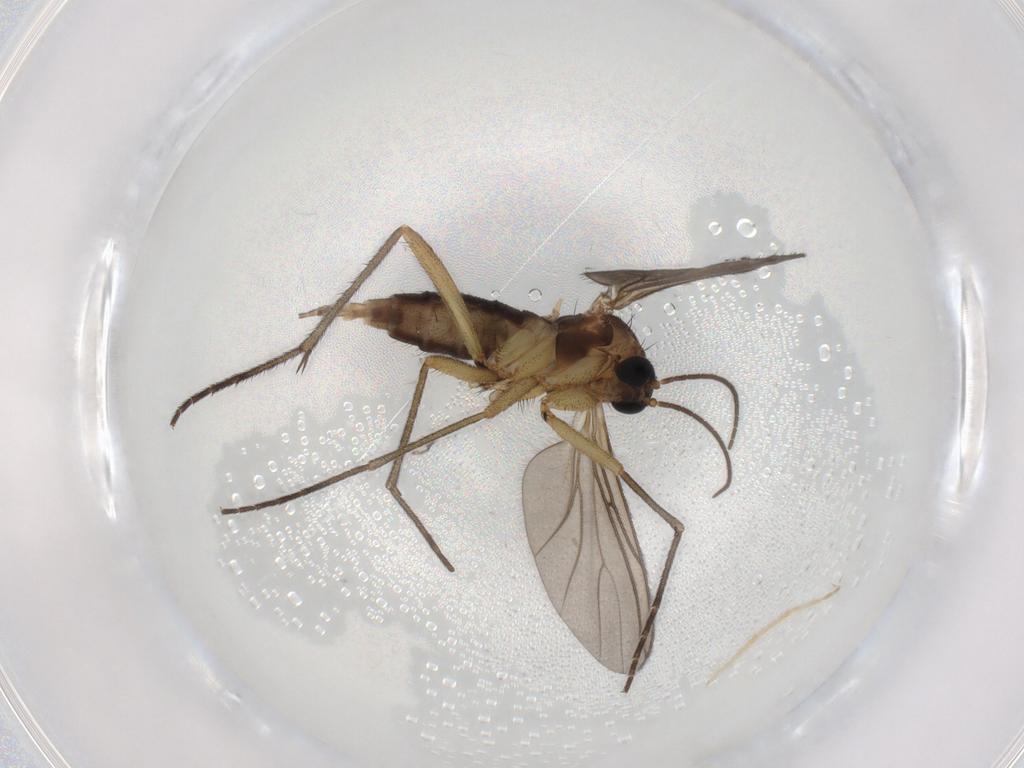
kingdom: Animalia
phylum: Arthropoda
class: Insecta
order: Diptera
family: Sciaridae
